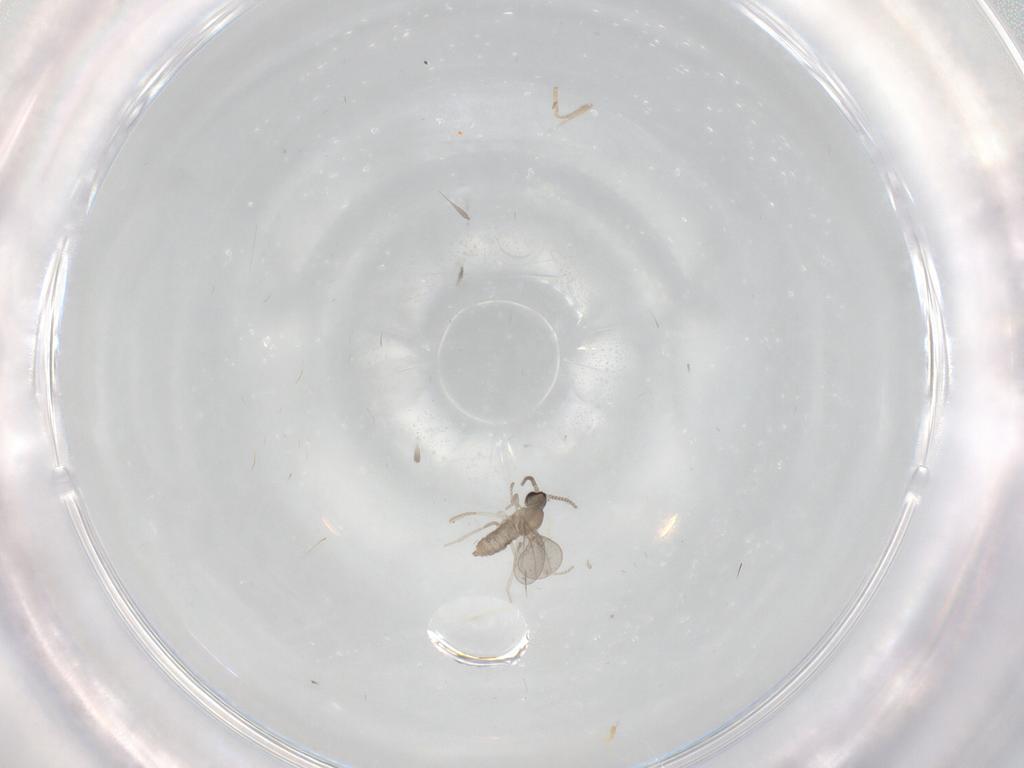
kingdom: Animalia
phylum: Arthropoda
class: Insecta
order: Diptera
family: Cecidomyiidae
